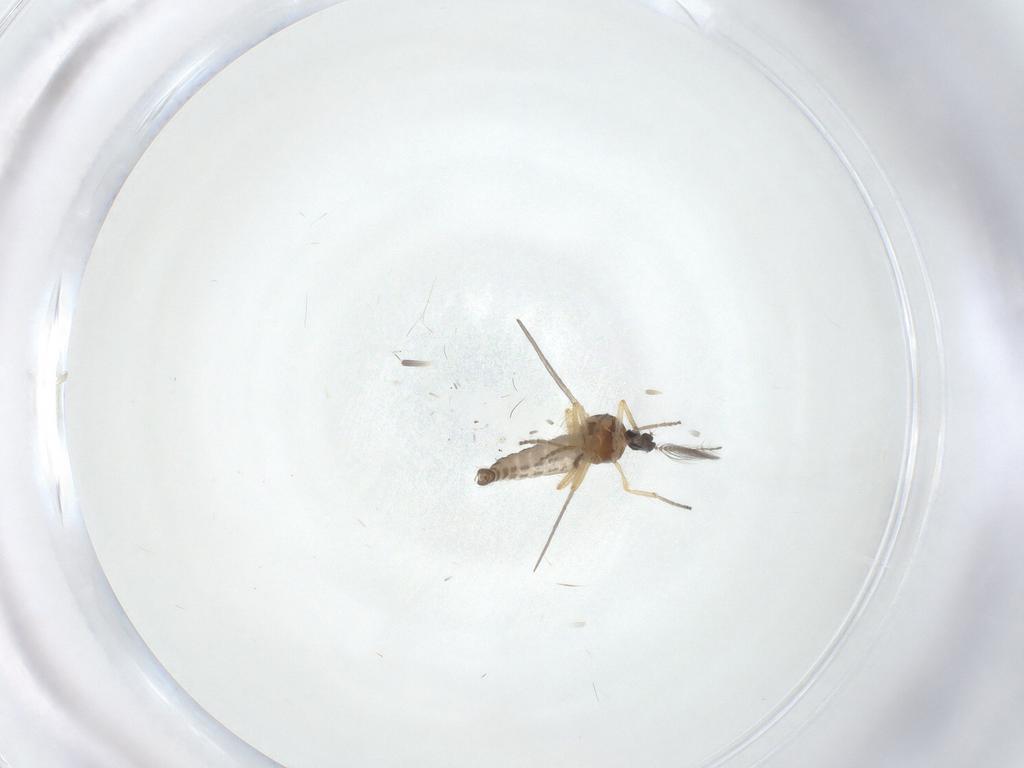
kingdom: Animalia
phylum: Arthropoda
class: Insecta
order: Diptera
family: Ceratopogonidae
